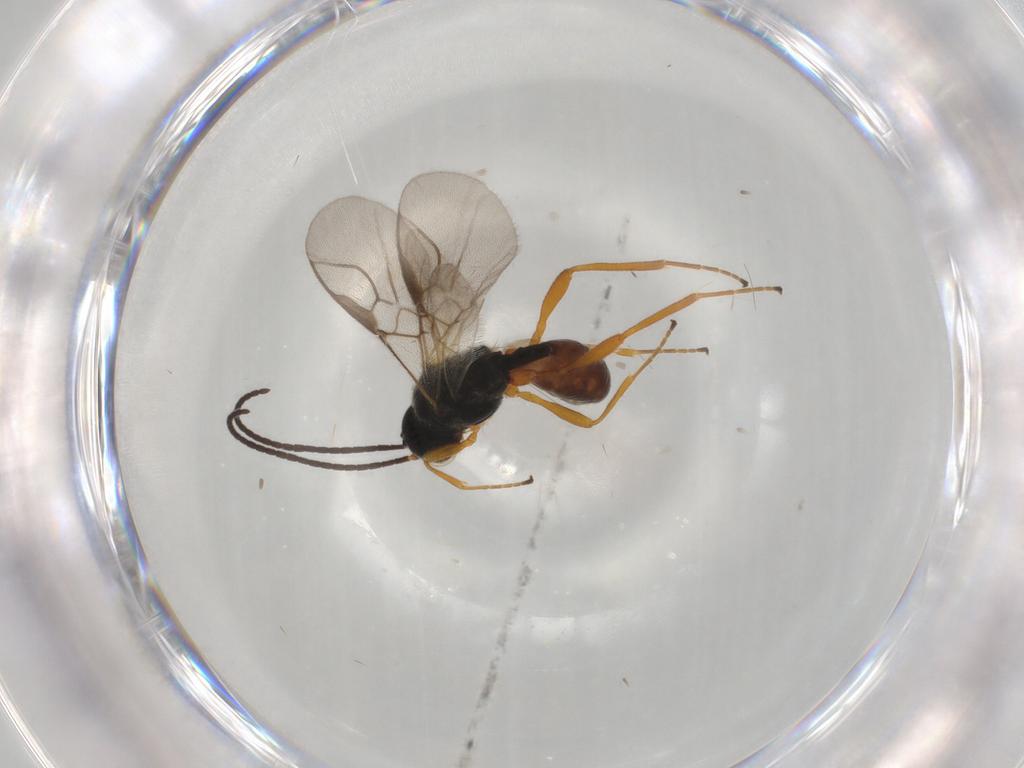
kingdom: Animalia
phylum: Arthropoda
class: Insecta
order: Hymenoptera
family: Braconidae
